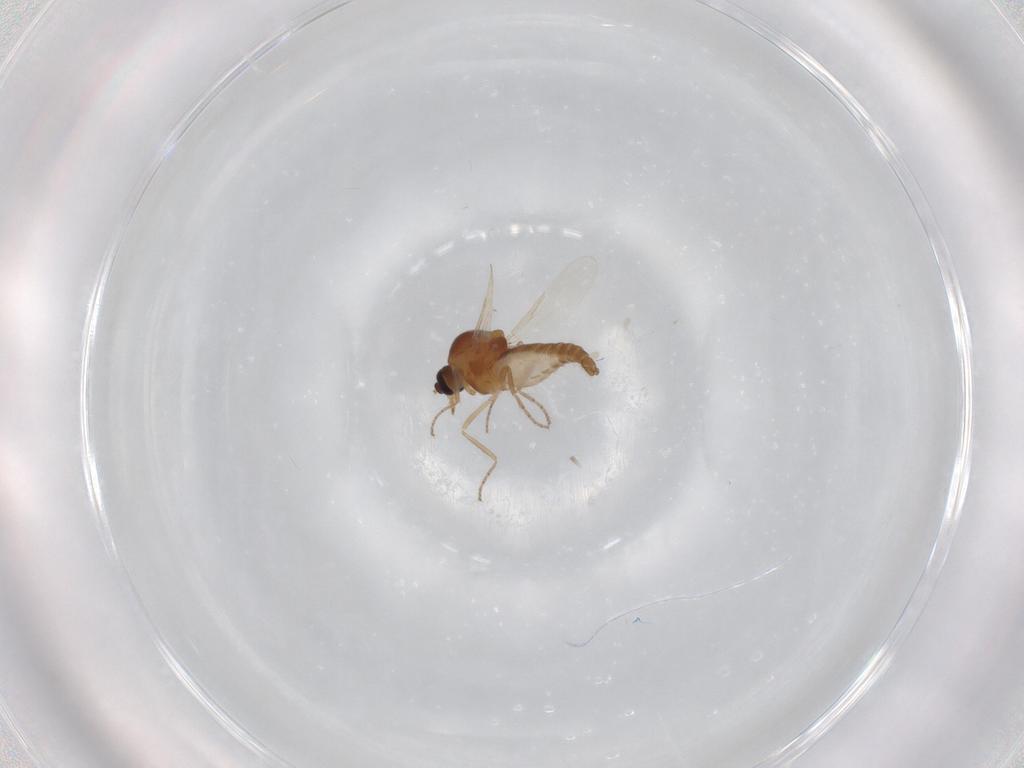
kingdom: Animalia
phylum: Arthropoda
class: Insecta
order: Diptera
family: Ceratopogonidae
